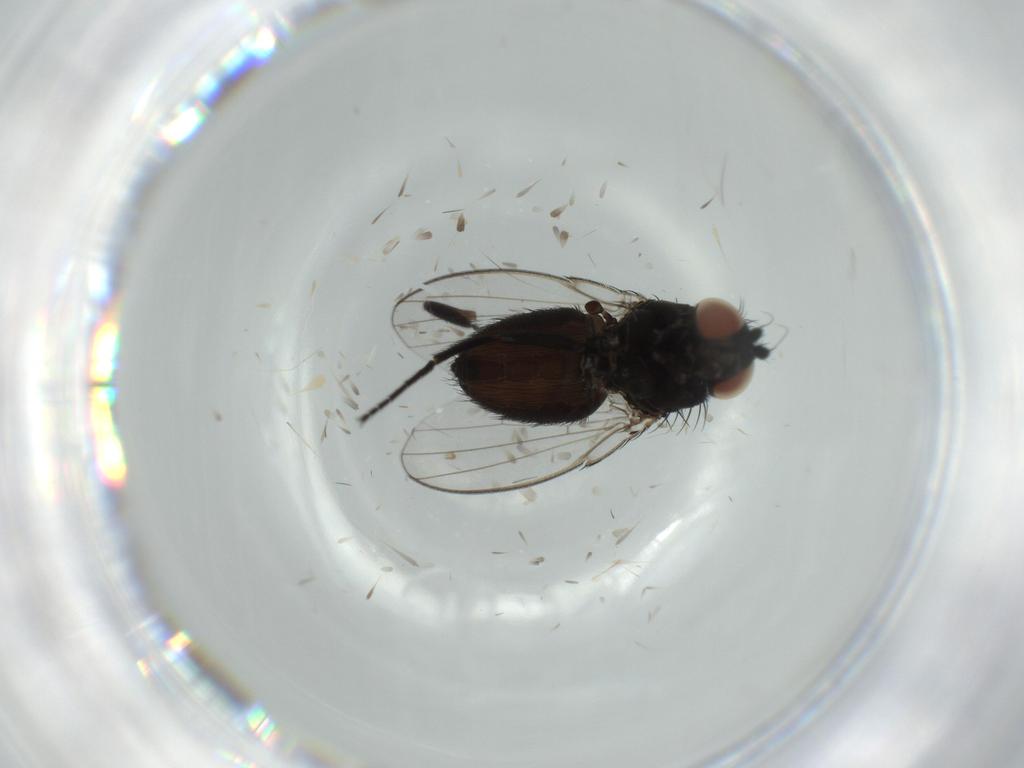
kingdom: Animalia
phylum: Arthropoda
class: Insecta
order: Diptera
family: Milichiidae
